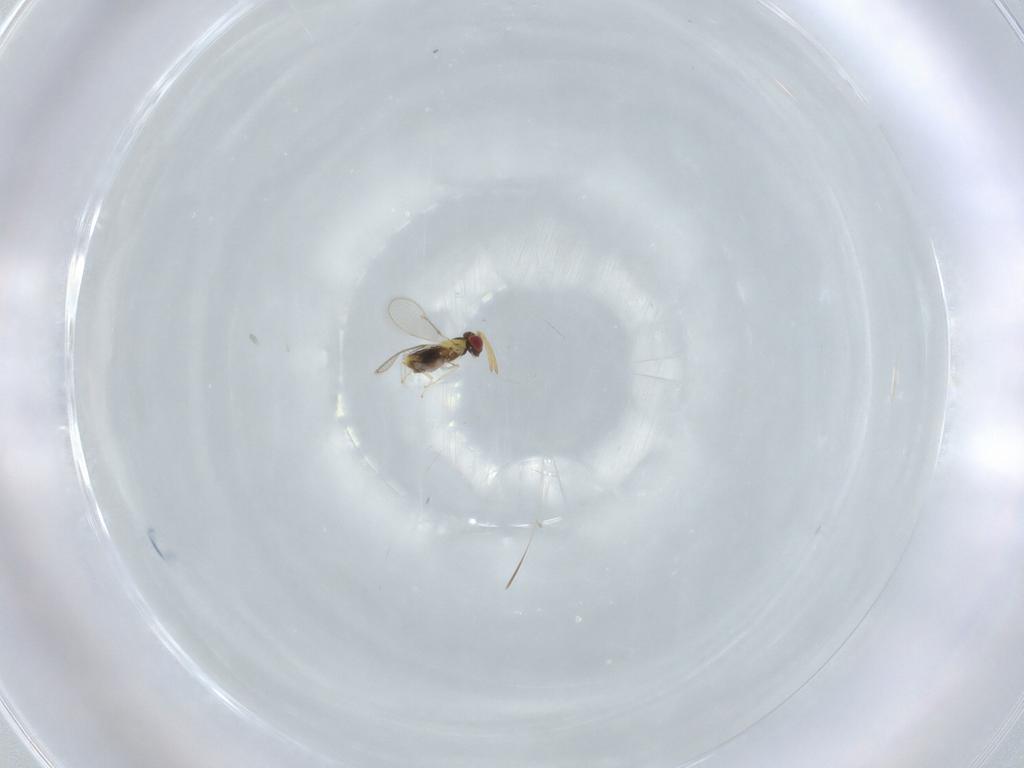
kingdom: Animalia
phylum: Arthropoda
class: Insecta
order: Hymenoptera
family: Aphelinidae
